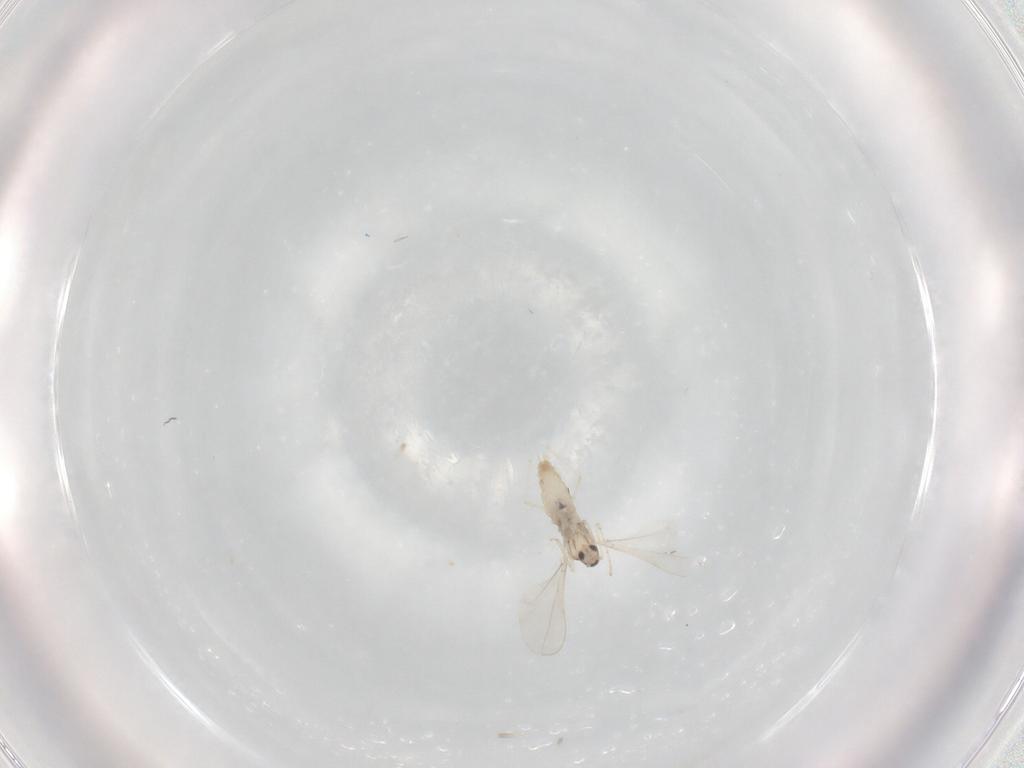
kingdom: Animalia
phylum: Arthropoda
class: Insecta
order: Diptera
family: Cecidomyiidae
